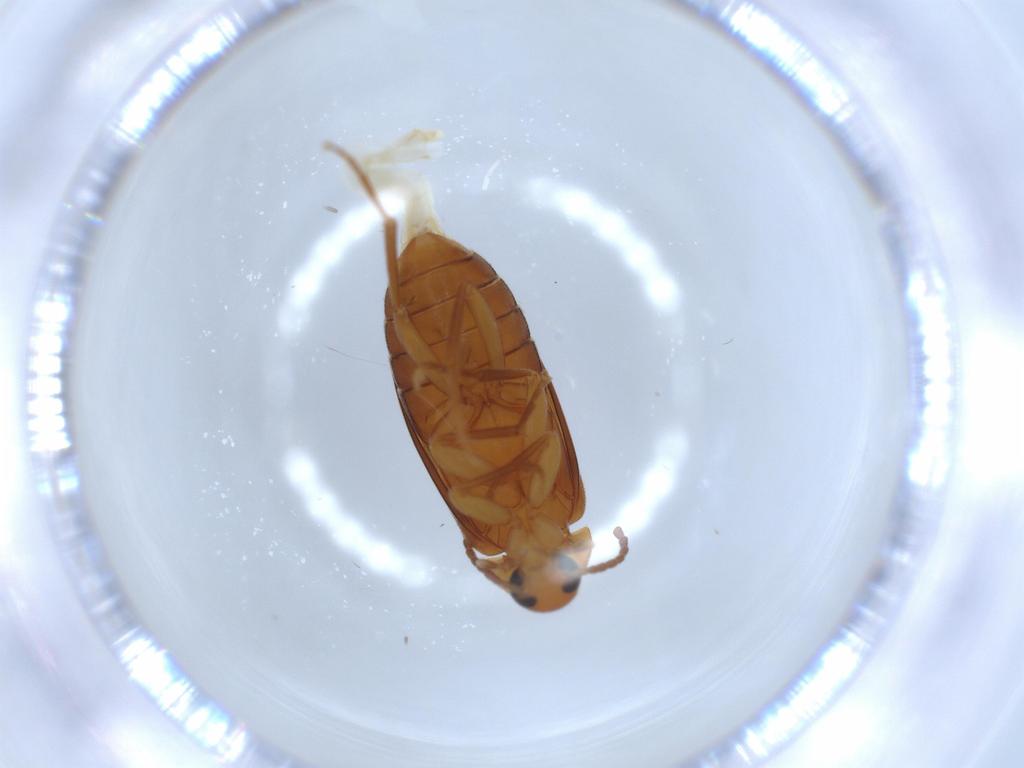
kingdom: Animalia
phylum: Arthropoda
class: Insecta
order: Coleoptera
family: Scraptiidae
